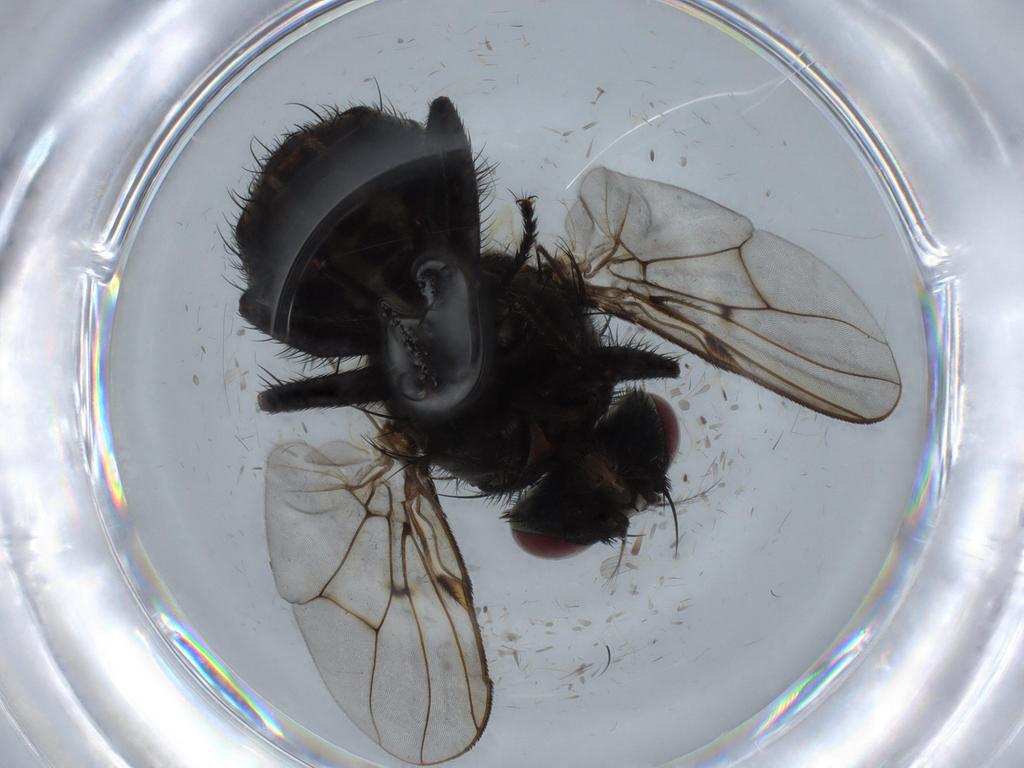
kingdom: Animalia
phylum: Arthropoda
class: Insecta
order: Diptera
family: Muscidae
